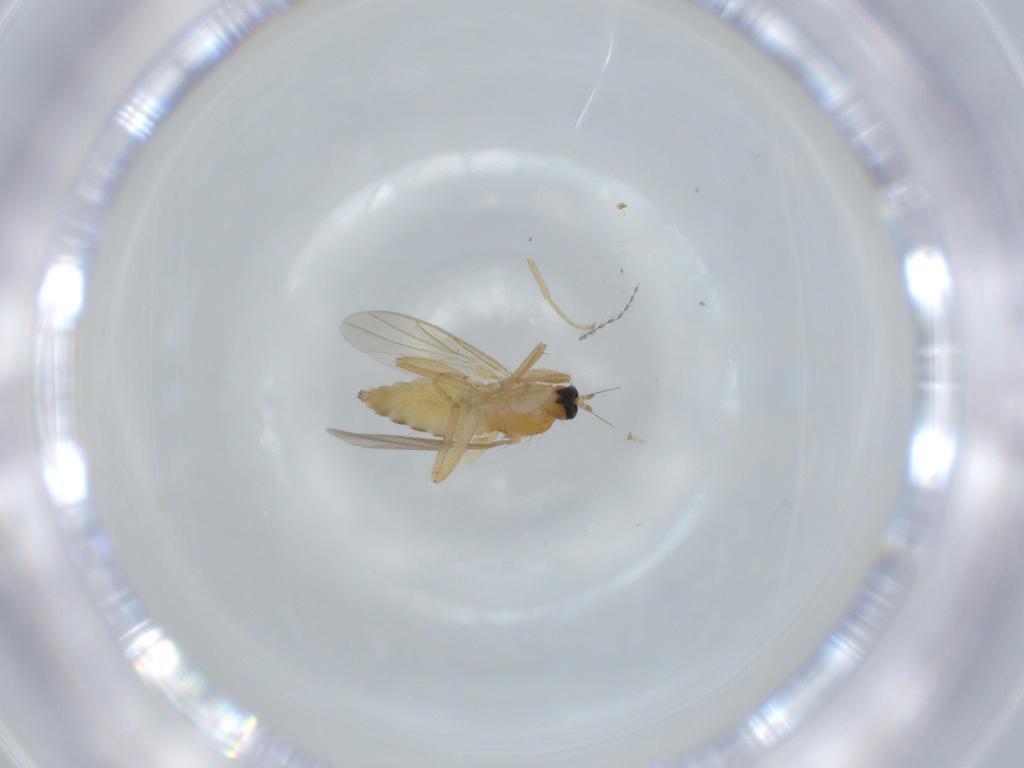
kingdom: Animalia
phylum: Arthropoda
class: Insecta
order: Diptera
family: Hybotidae
